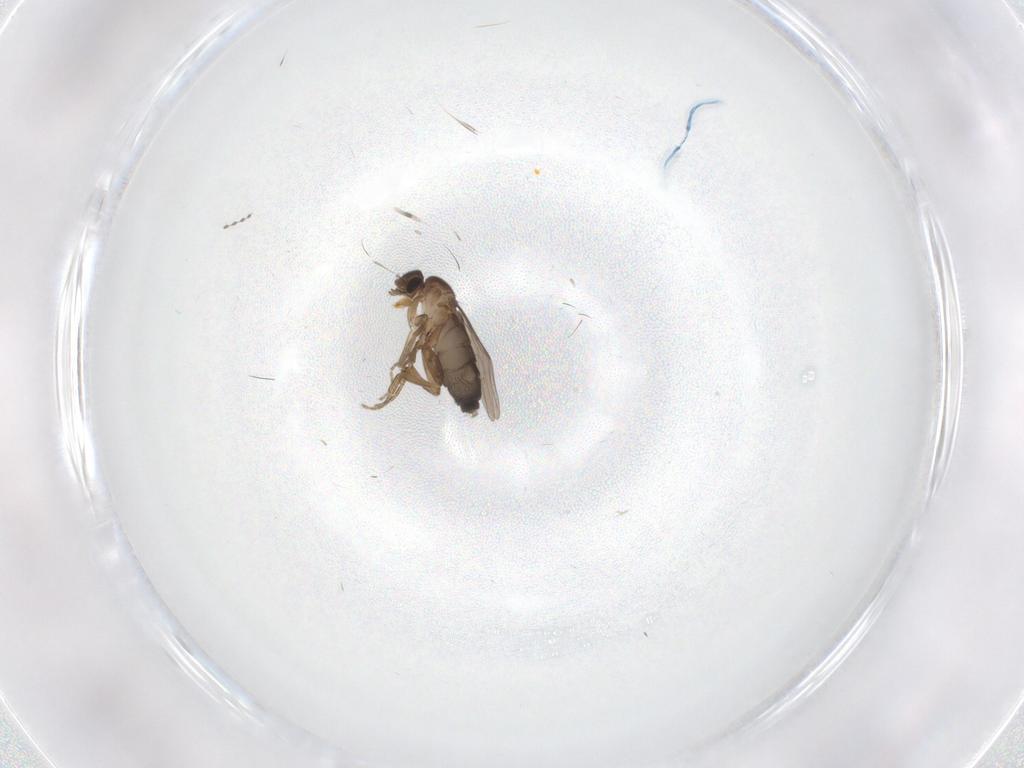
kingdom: Animalia
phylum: Arthropoda
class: Insecta
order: Diptera
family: Phoridae
